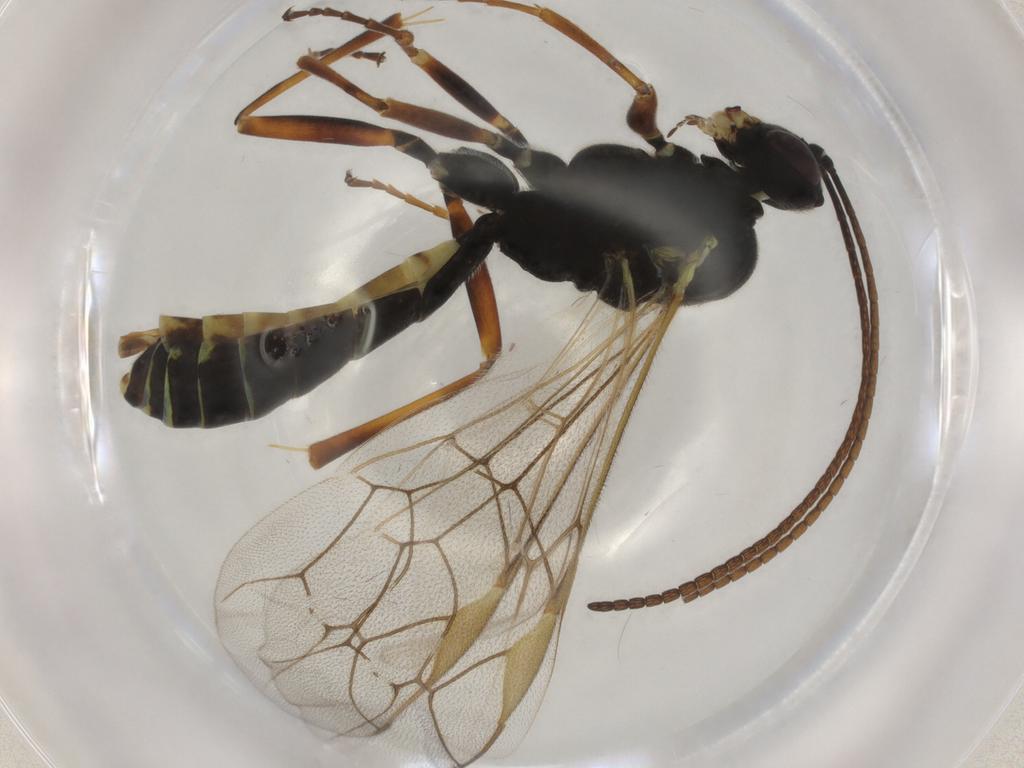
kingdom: Animalia
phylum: Arthropoda
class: Insecta
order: Hymenoptera
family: Ichneumonidae
